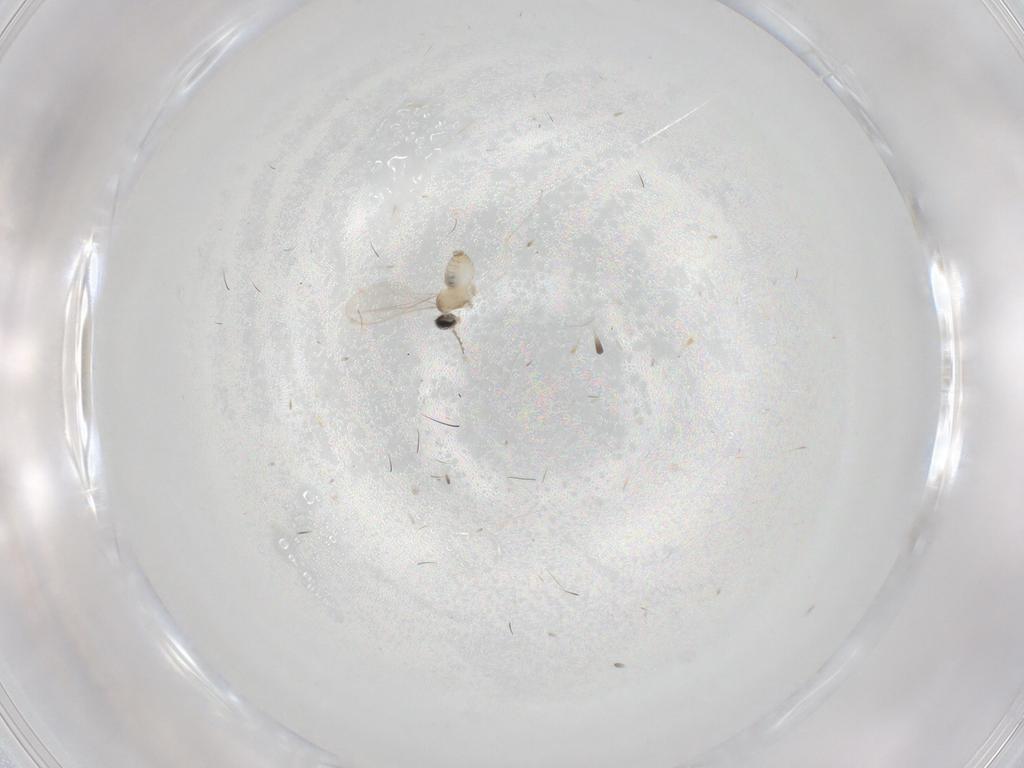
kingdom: Animalia
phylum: Arthropoda
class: Insecta
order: Diptera
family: Cecidomyiidae
